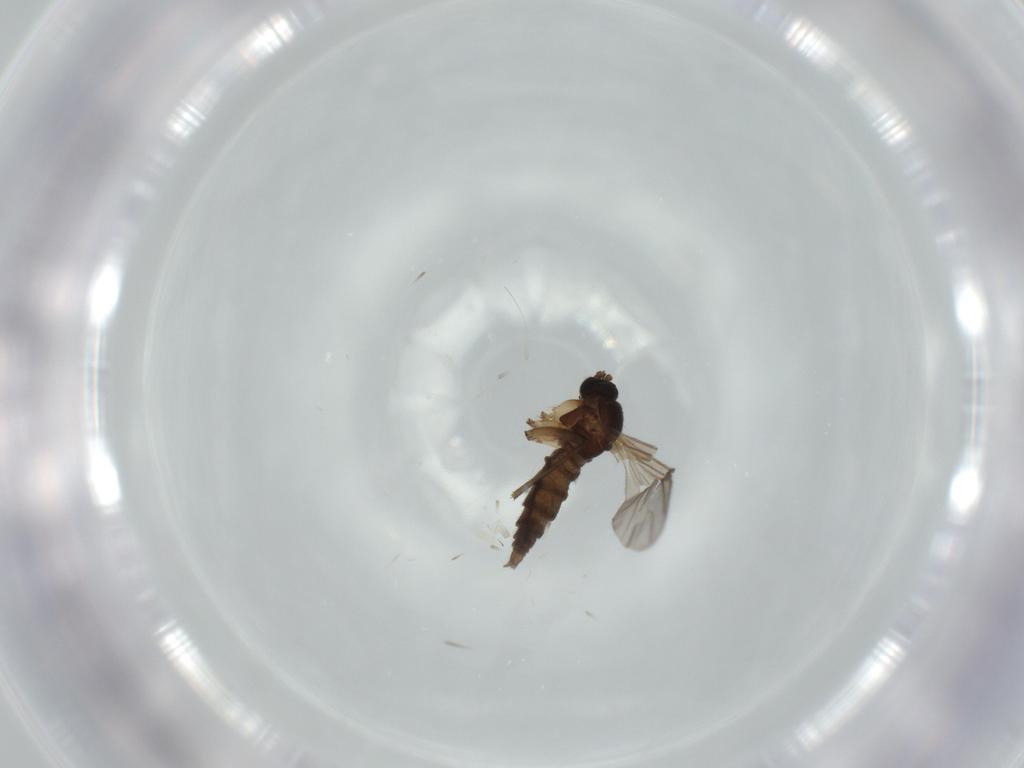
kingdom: Animalia
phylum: Arthropoda
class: Insecta
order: Diptera
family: Sciaridae
